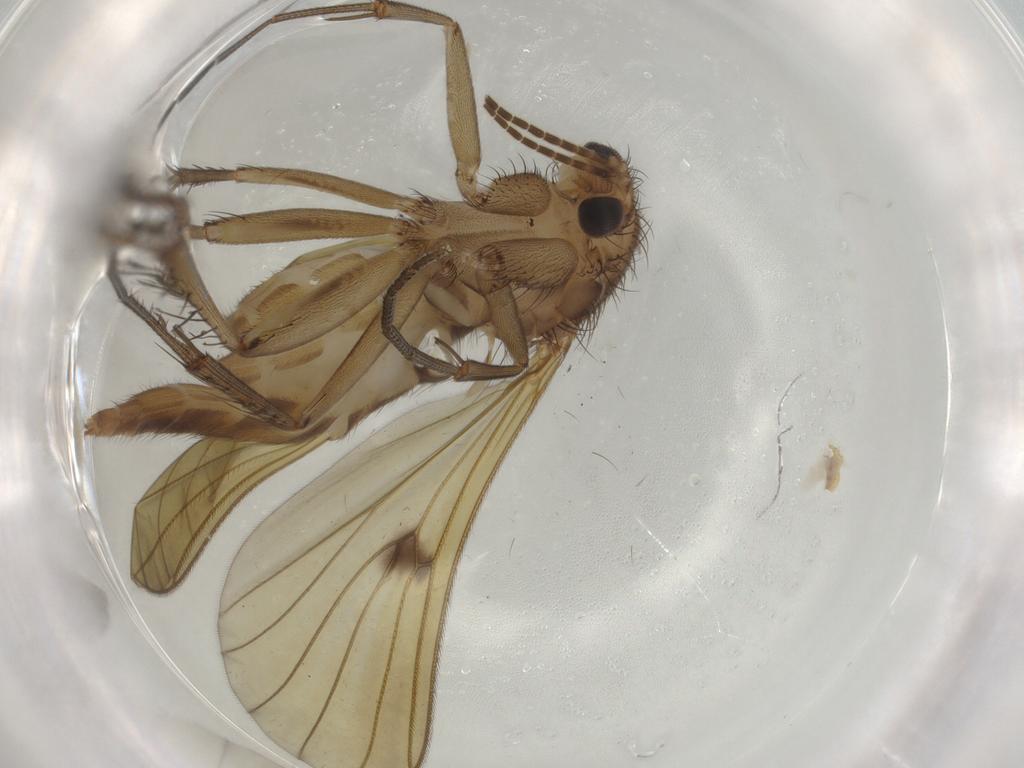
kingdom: Animalia
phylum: Arthropoda
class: Insecta
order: Diptera
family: Mycetophilidae
